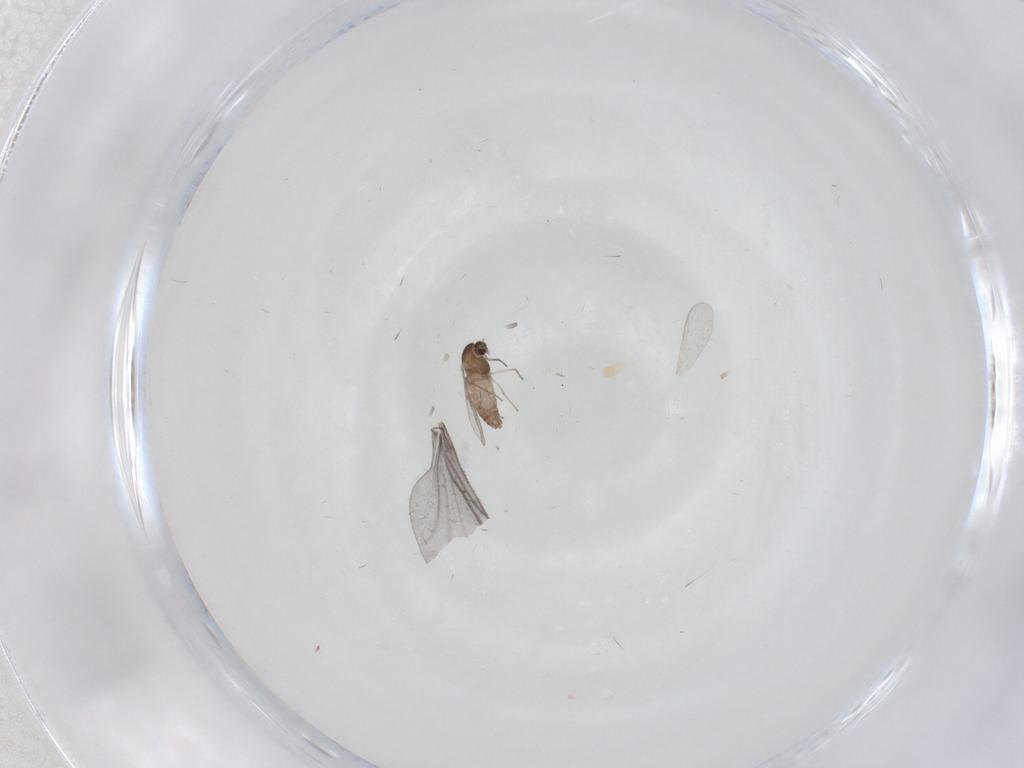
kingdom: Animalia
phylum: Arthropoda
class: Insecta
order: Diptera
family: Chironomidae
